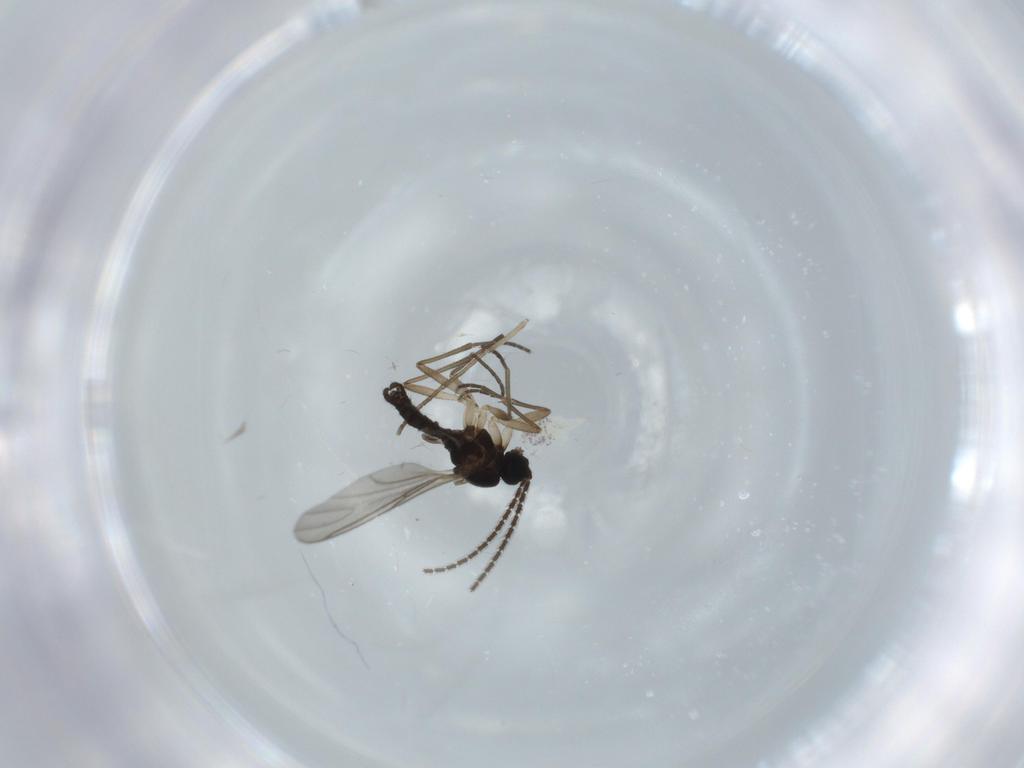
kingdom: Animalia
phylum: Arthropoda
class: Insecta
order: Diptera
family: Sciaridae
